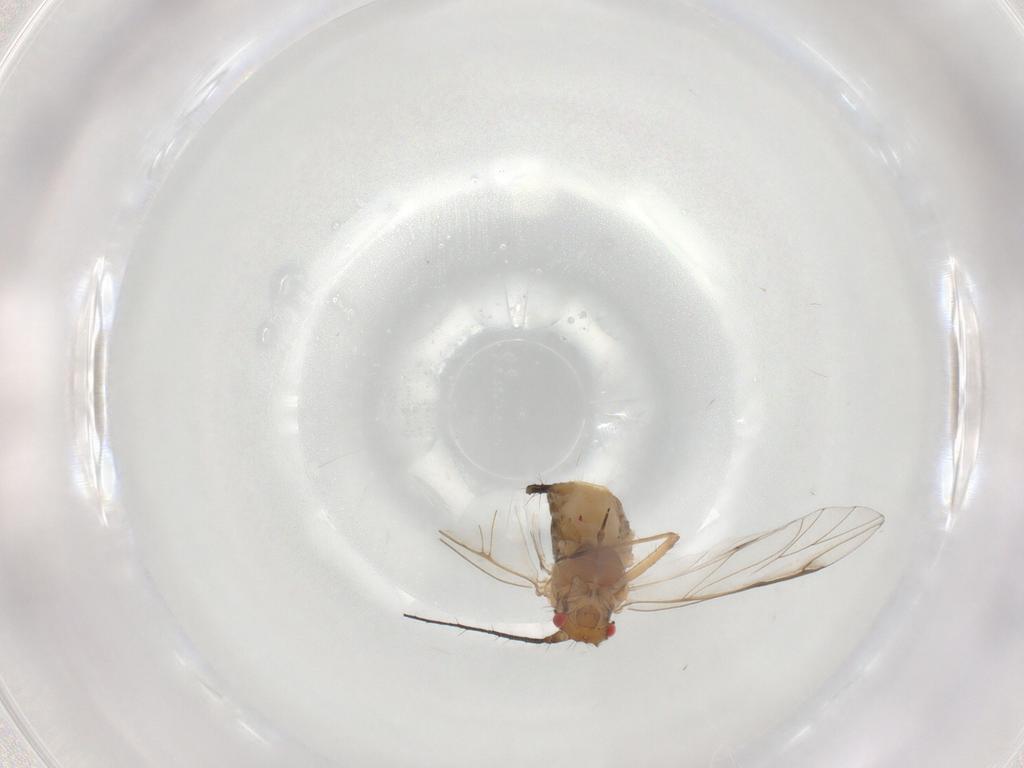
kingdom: Animalia
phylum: Arthropoda
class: Insecta
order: Hemiptera
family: Aphididae
